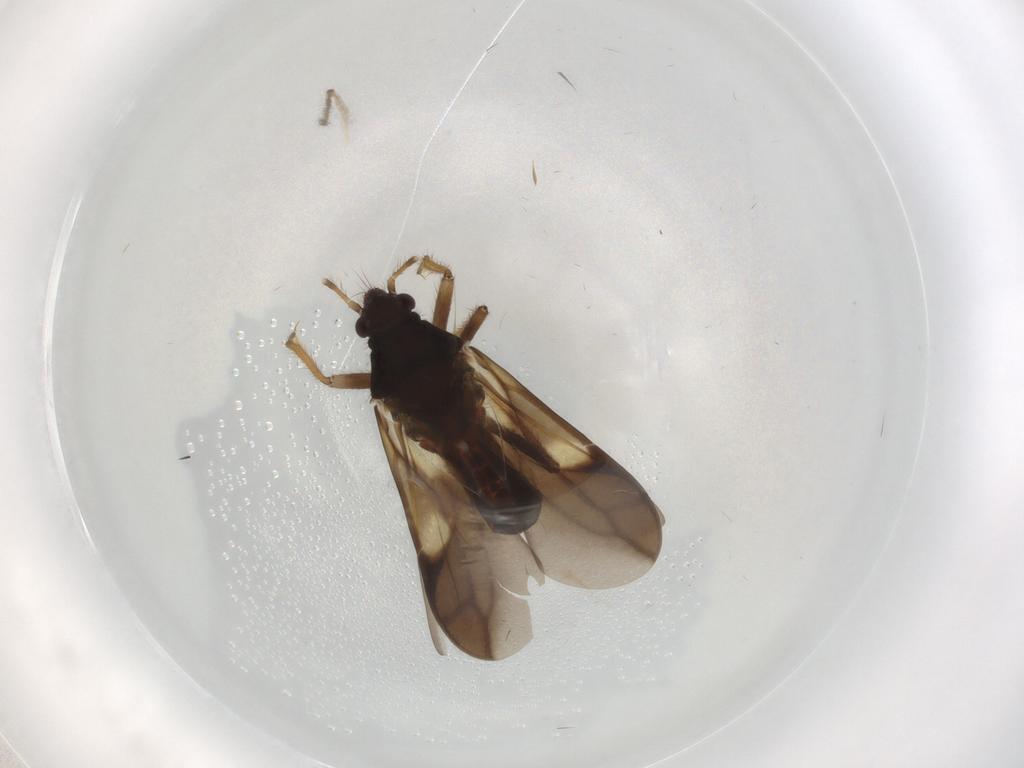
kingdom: Animalia
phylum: Arthropoda
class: Insecta
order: Hemiptera
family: Ceratocombidae
